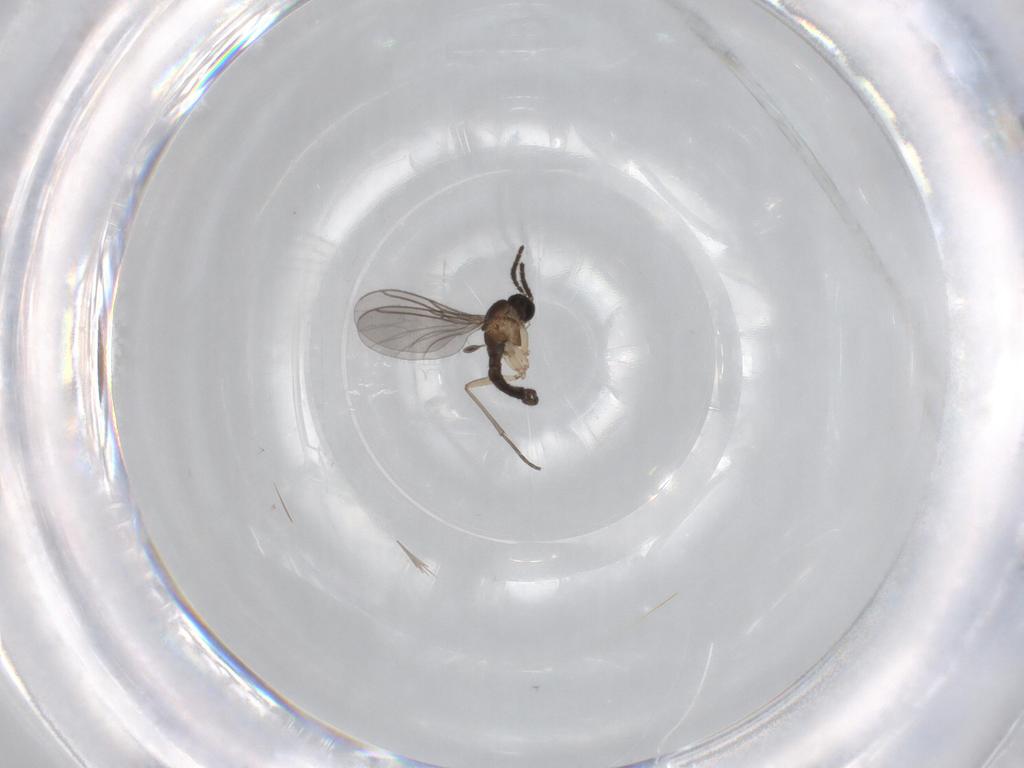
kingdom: Animalia
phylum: Arthropoda
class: Insecta
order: Diptera
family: Sciaridae
